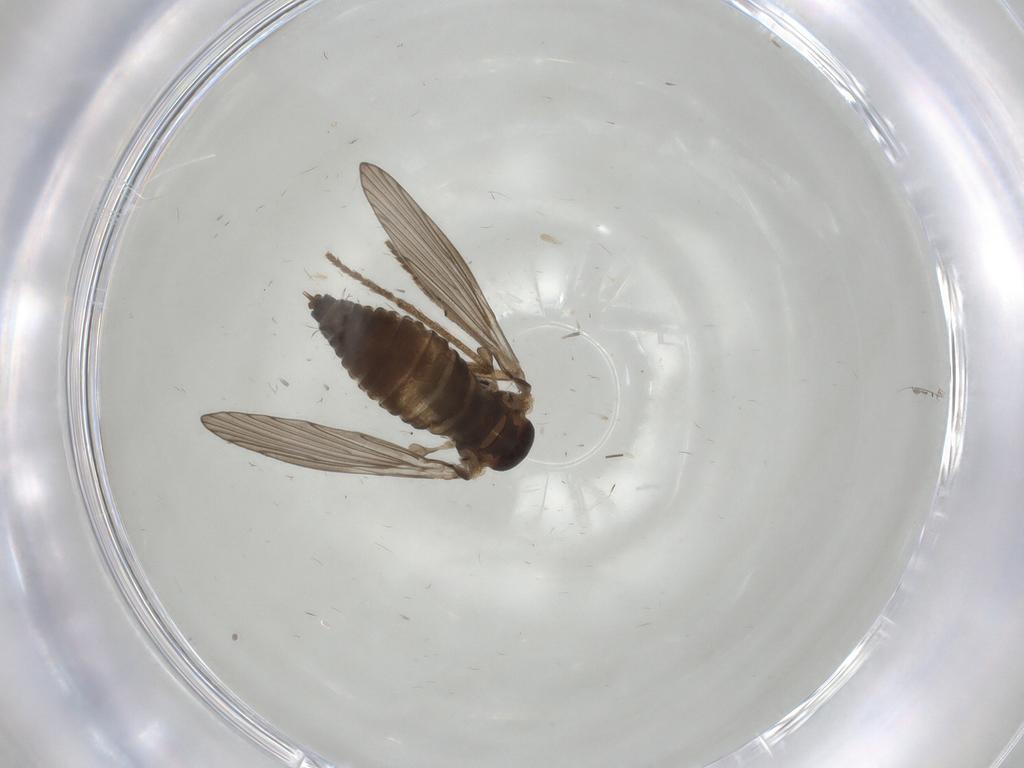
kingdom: Animalia
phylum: Arthropoda
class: Insecta
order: Diptera
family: Psychodidae
